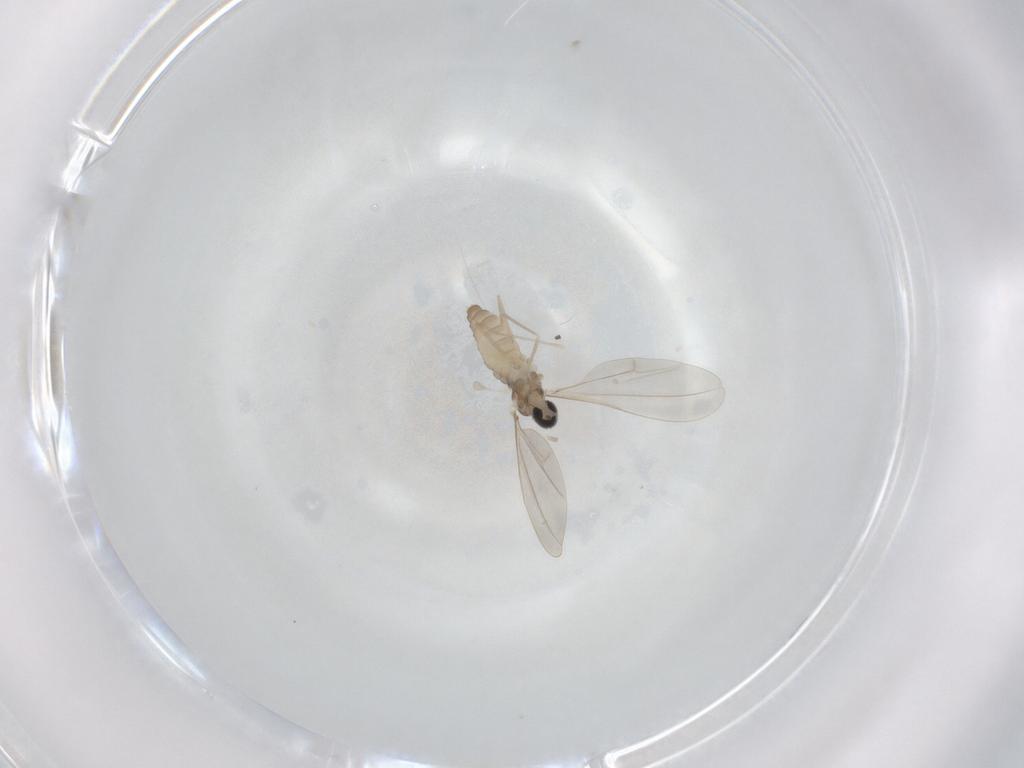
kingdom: Animalia
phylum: Arthropoda
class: Insecta
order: Diptera
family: Cecidomyiidae
